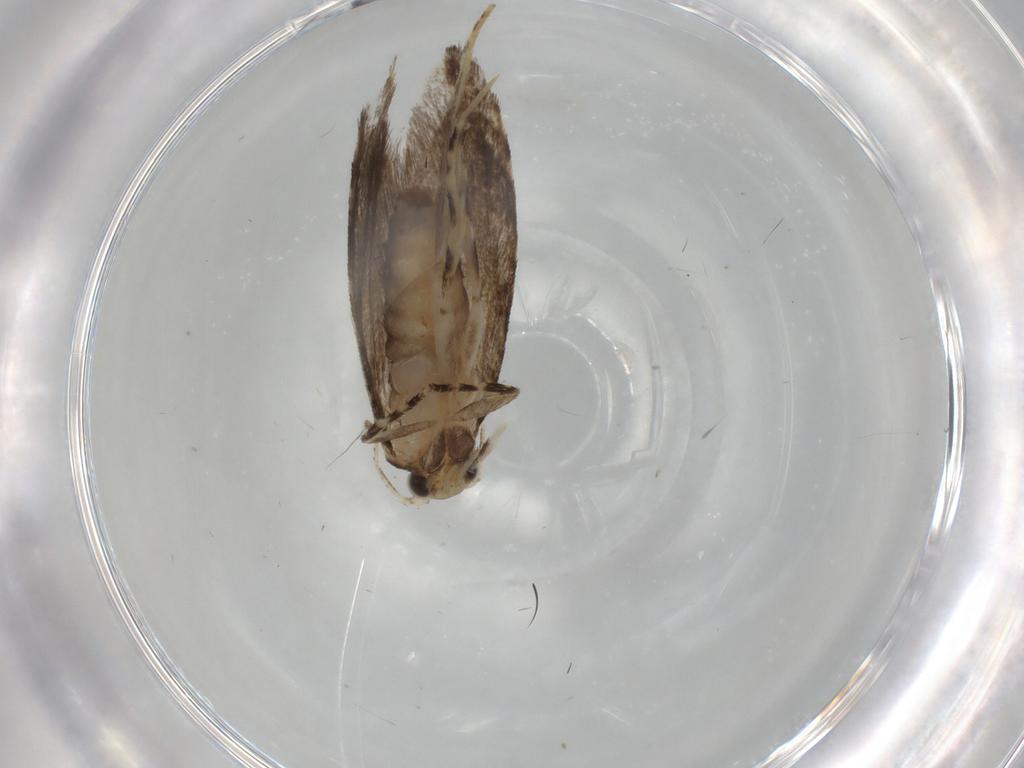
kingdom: Animalia
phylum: Arthropoda
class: Insecta
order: Lepidoptera
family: Tineidae
